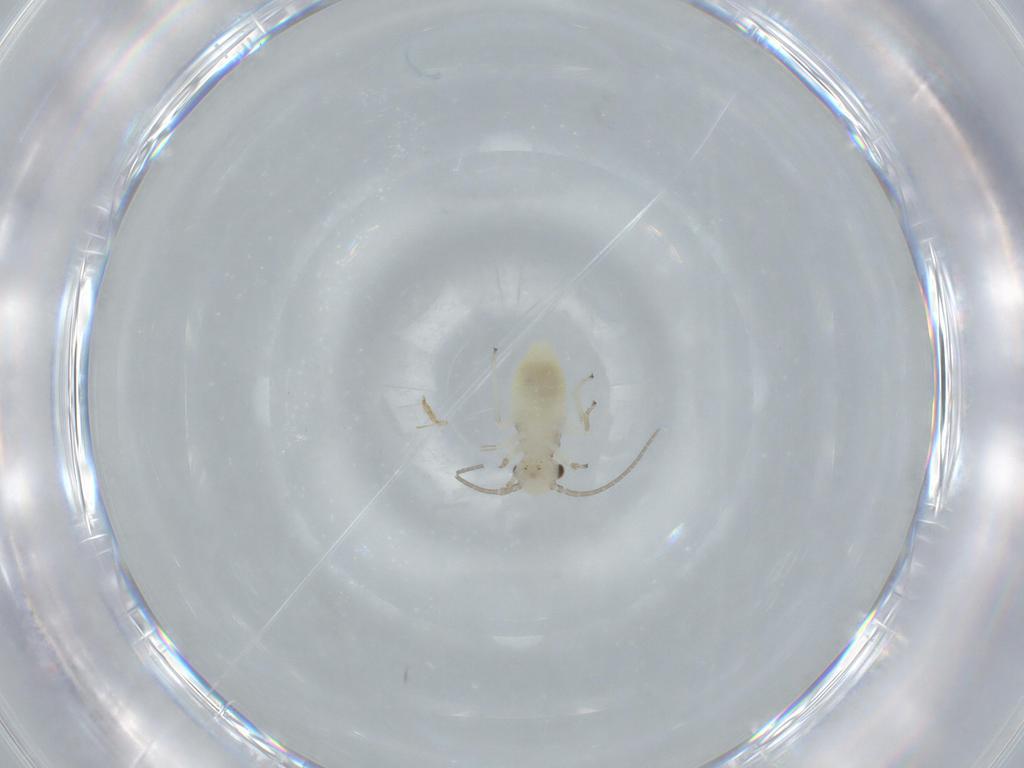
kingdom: Animalia
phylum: Arthropoda
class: Insecta
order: Psocodea
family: Caeciliusidae
